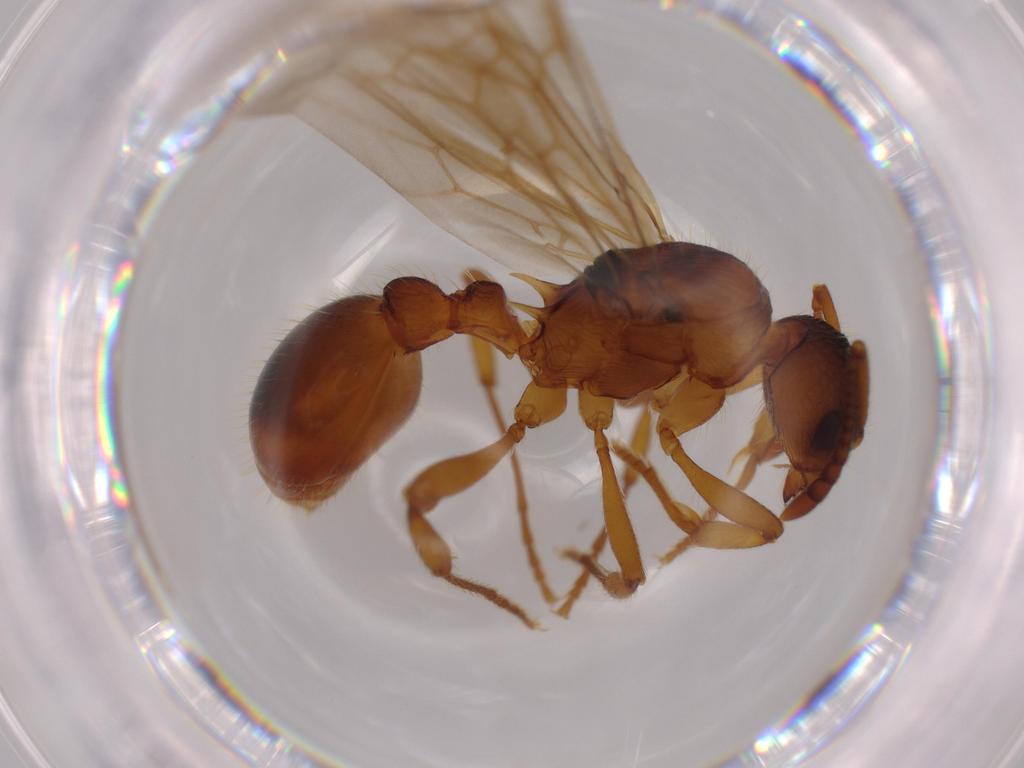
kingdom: Animalia
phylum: Arthropoda
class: Insecta
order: Hymenoptera
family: Formicidae
